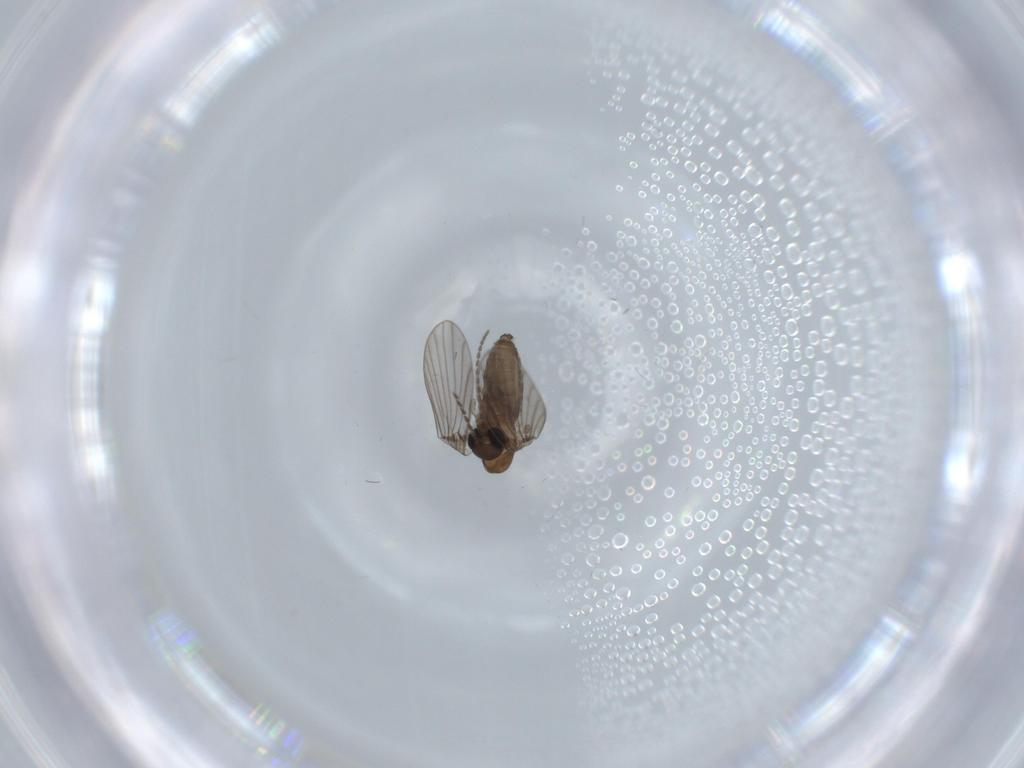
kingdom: Animalia
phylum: Arthropoda
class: Insecta
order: Diptera
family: Psychodidae
